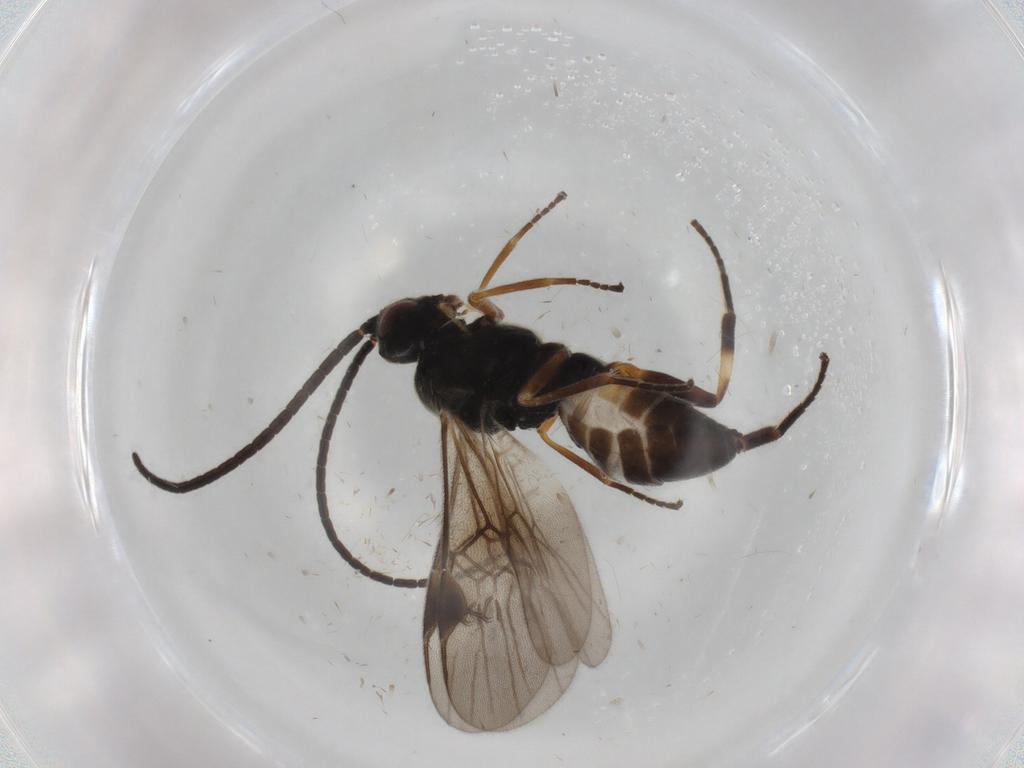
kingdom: Animalia
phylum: Arthropoda
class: Insecta
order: Hymenoptera
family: Braconidae
